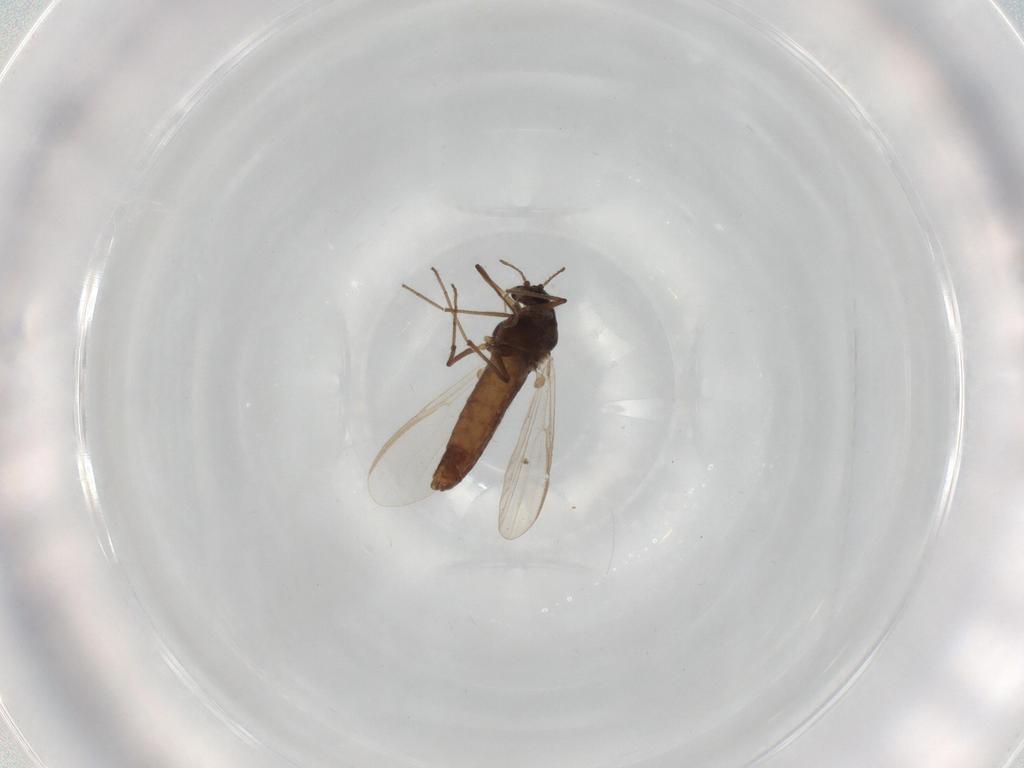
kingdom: Animalia
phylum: Arthropoda
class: Insecta
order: Diptera
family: Chironomidae
